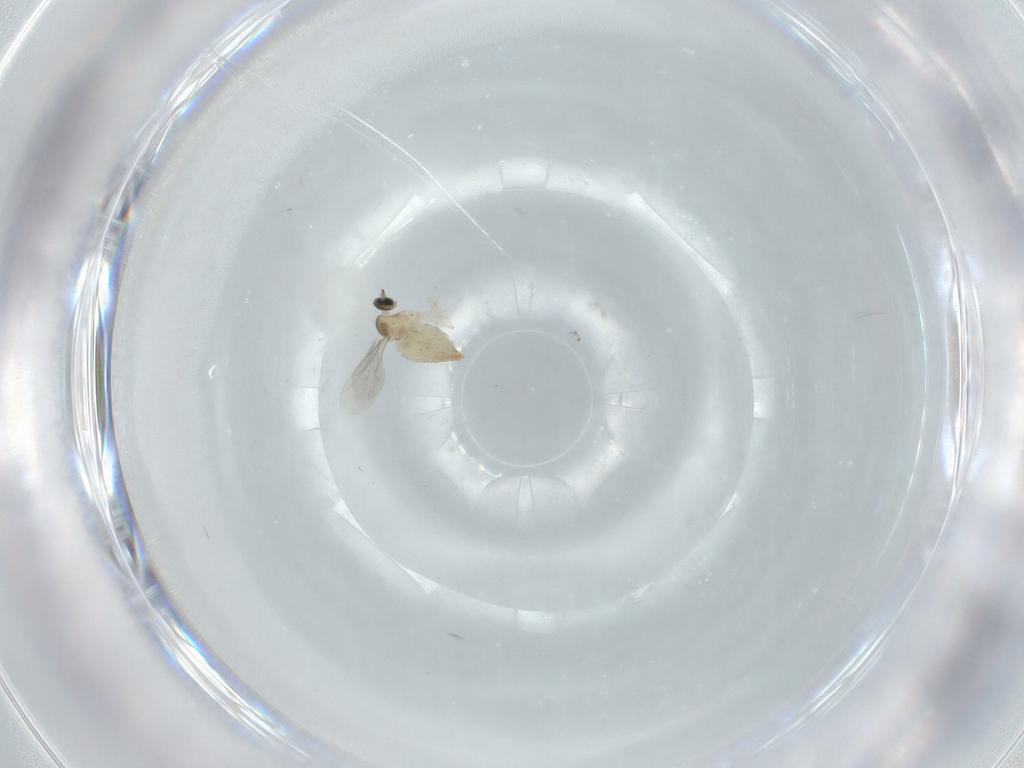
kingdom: Animalia
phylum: Arthropoda
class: Insecta
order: Diptera
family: Cecidomyiidae
